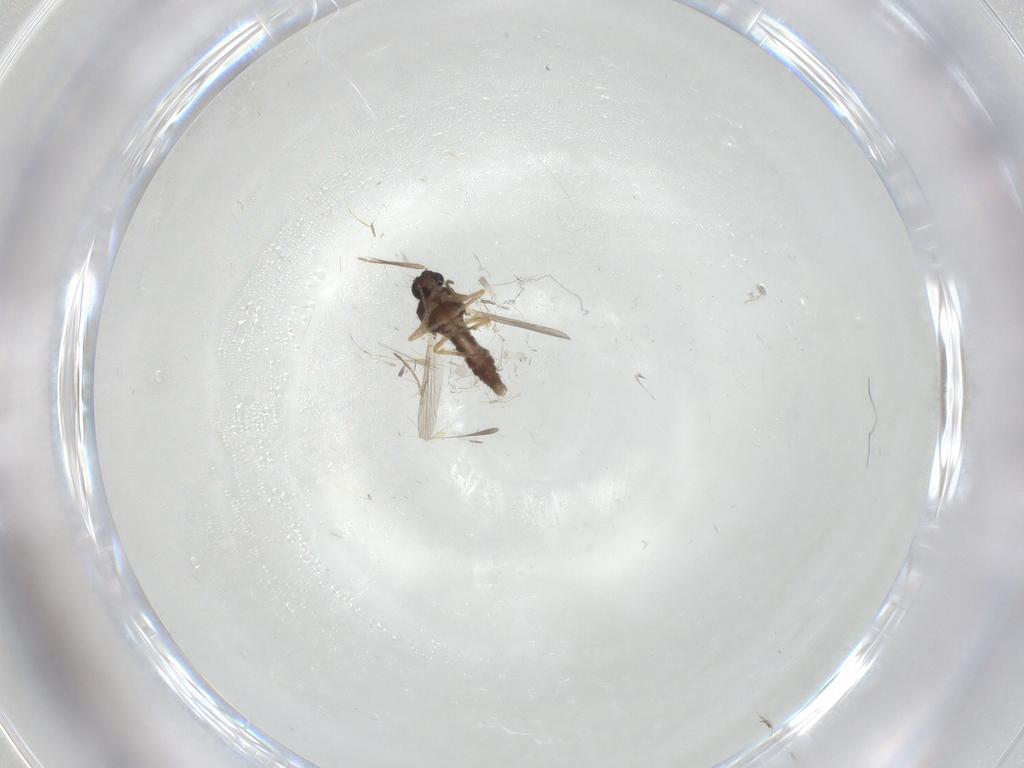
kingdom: Animalia
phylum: Arthropoda
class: Insecta
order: Diptera
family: Ceratopogonidae
